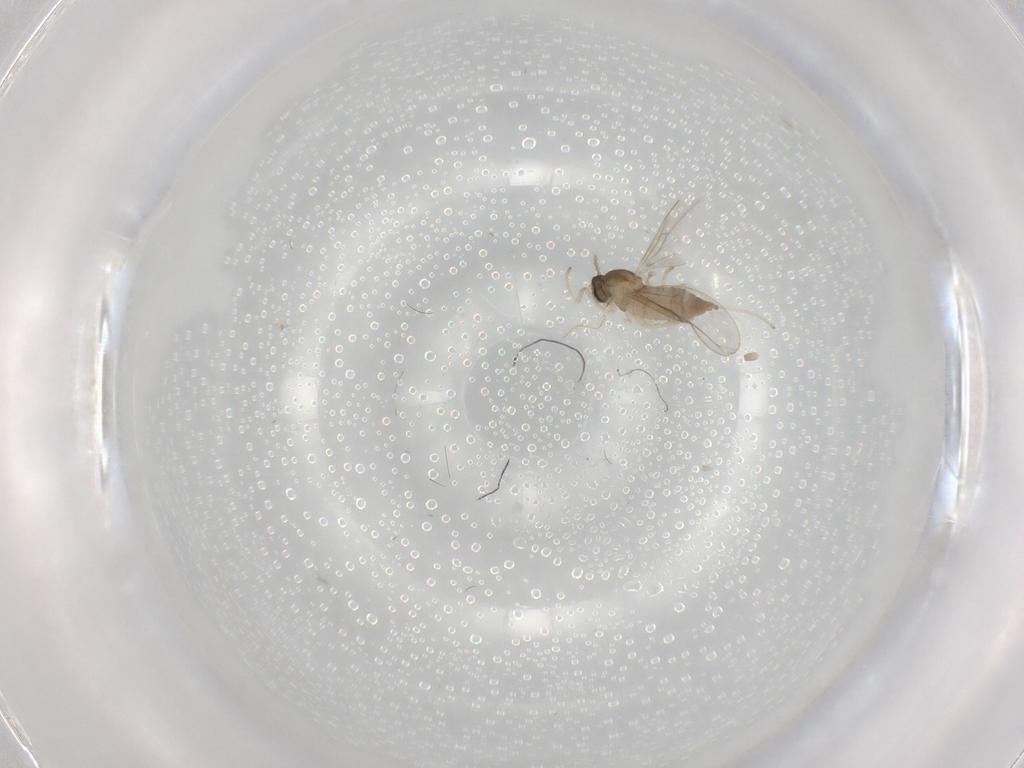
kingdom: Animalia
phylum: Arthropoda
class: Insecta
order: Diptera
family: Cecidomyiidae
